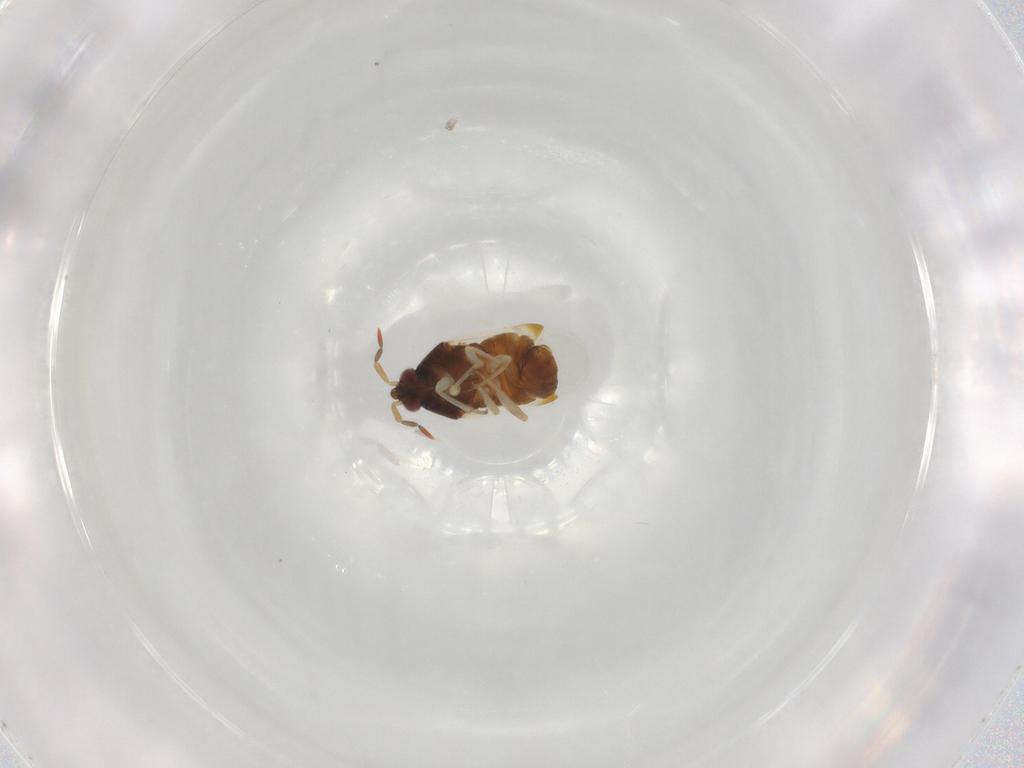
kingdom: Animalia
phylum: Arthropoda
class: Insecta
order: Hemiptera
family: Anthocoridae
